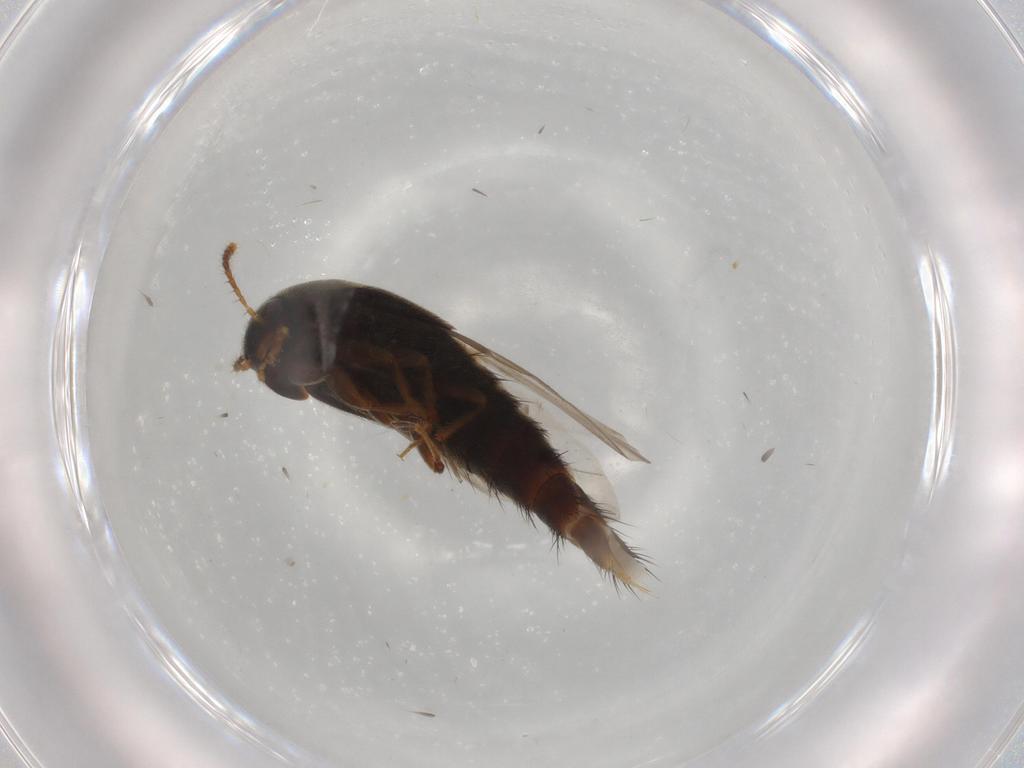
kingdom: Animalia
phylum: Arthropoda
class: Insecta
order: Coleoptera
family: Staphylinidae
